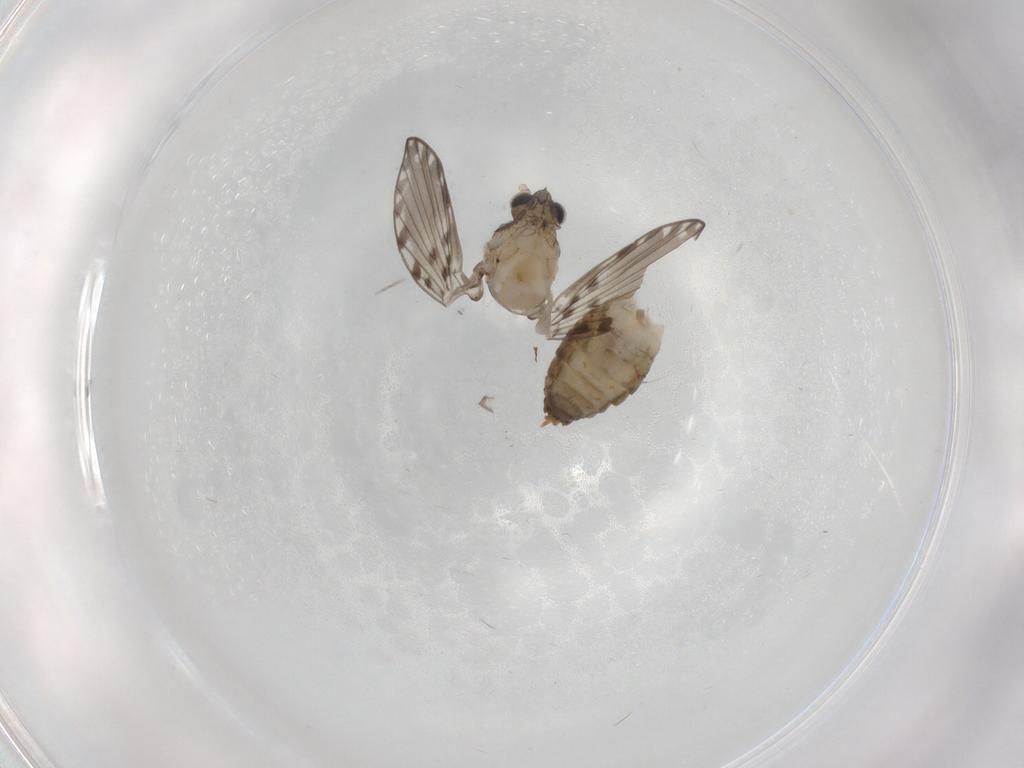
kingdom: Animalia
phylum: Arthropoda
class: Insecta
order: Diptera
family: Psychodidae
